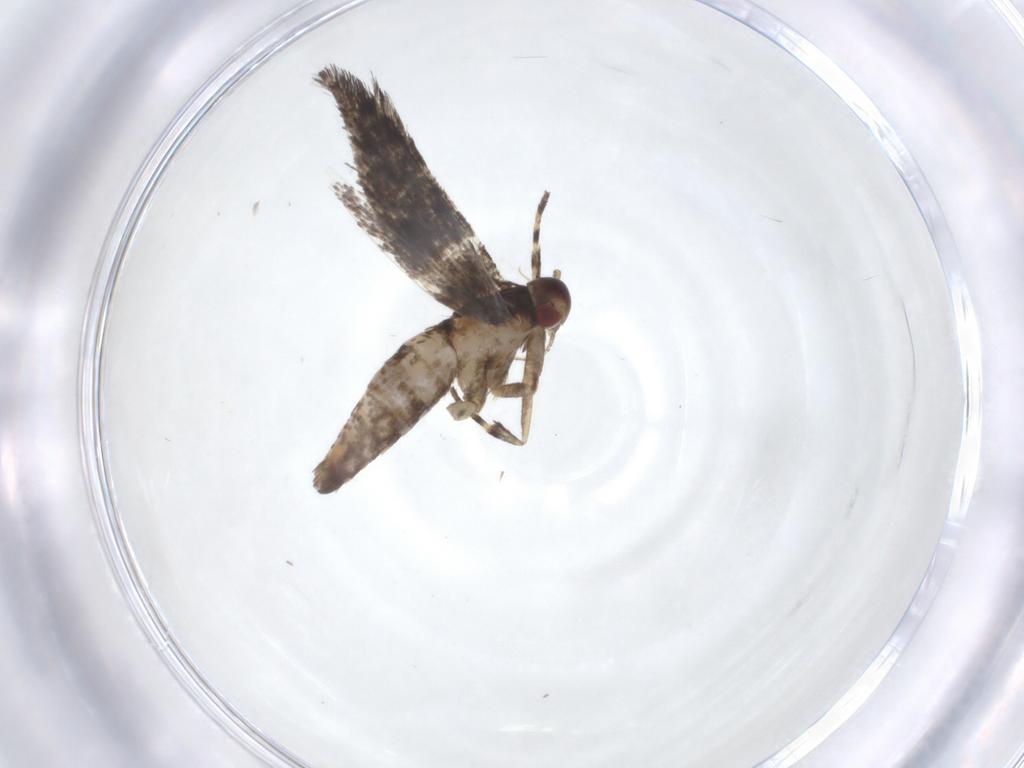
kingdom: Animalia
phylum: Arthropoda
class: Insecta
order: Lepidoptera
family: Cosmopterigidae
